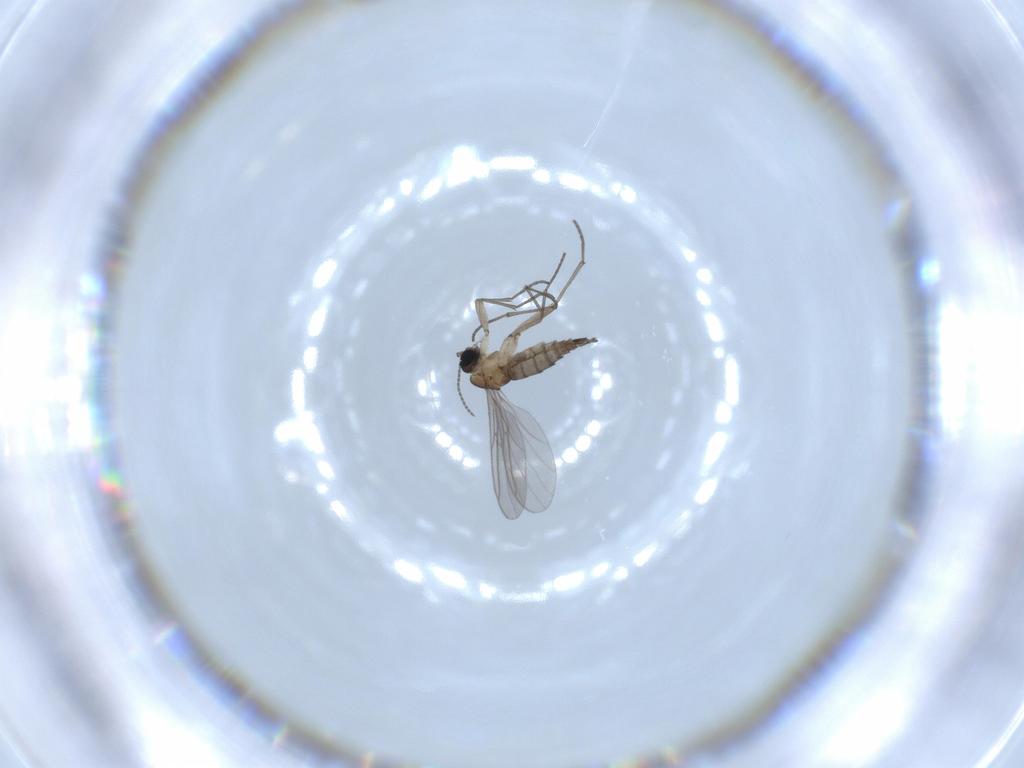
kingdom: Animalia
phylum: Arthropoda
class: Insecta
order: Diptera
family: Sciaridae
